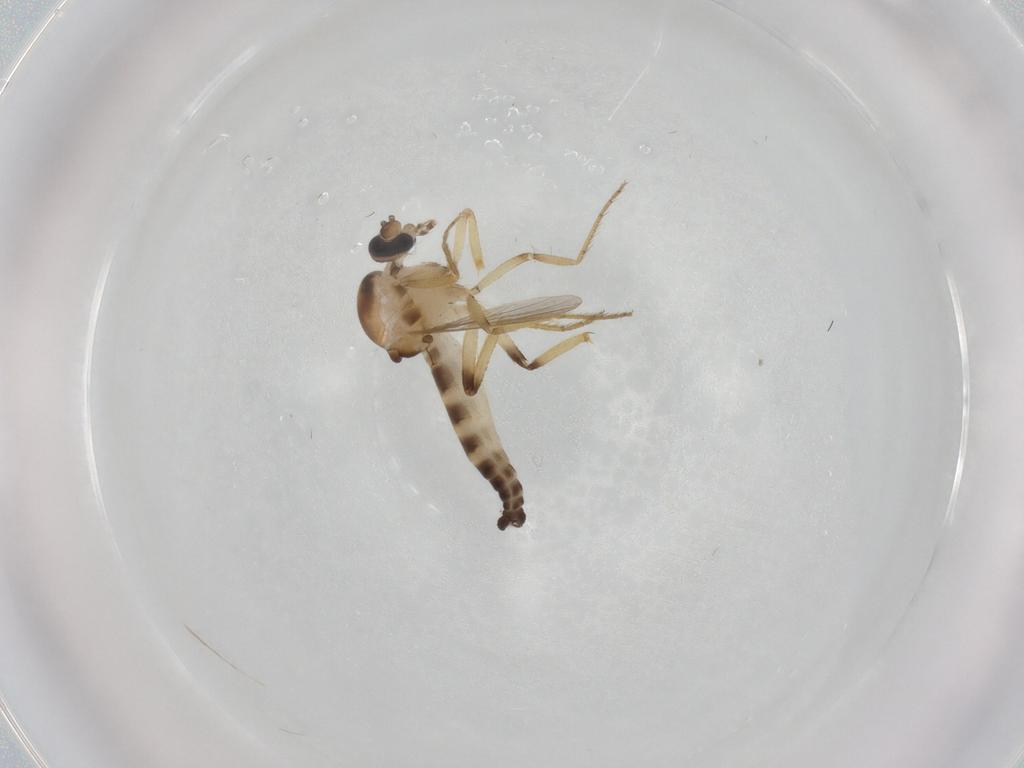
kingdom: Animalia
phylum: Arthropoda
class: Insecta
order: Diptera
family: Ceratopogonidae
